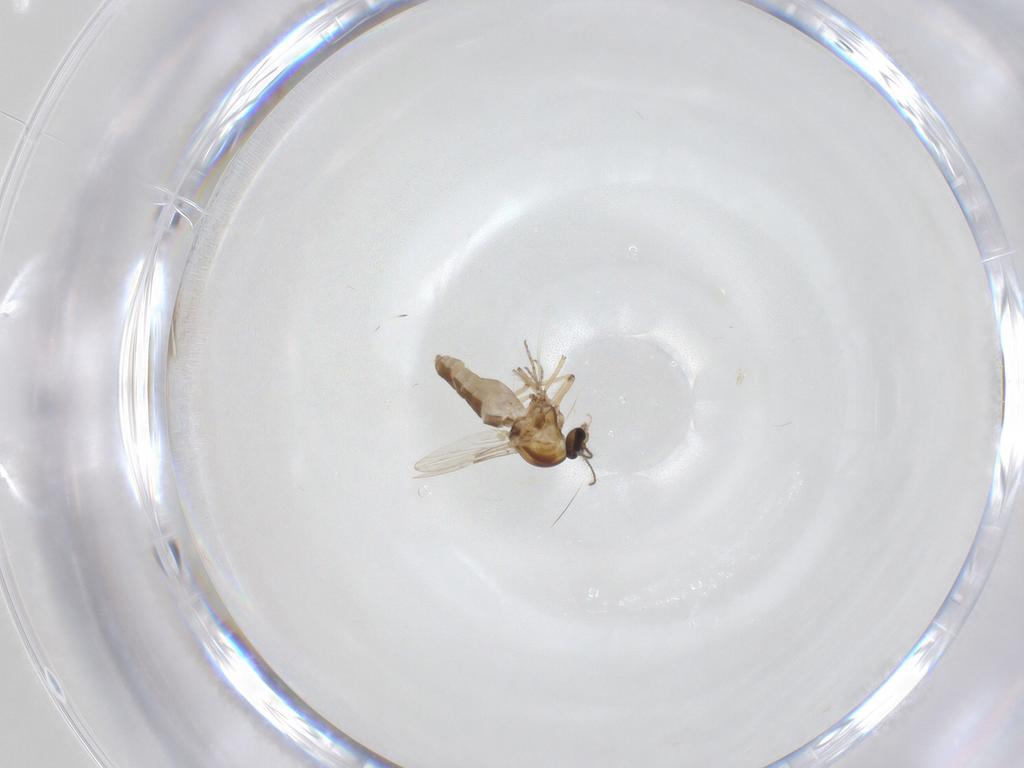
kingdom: Animalia
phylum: Arthropoda
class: Insecta
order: Diptera
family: Ceratopogonidae
